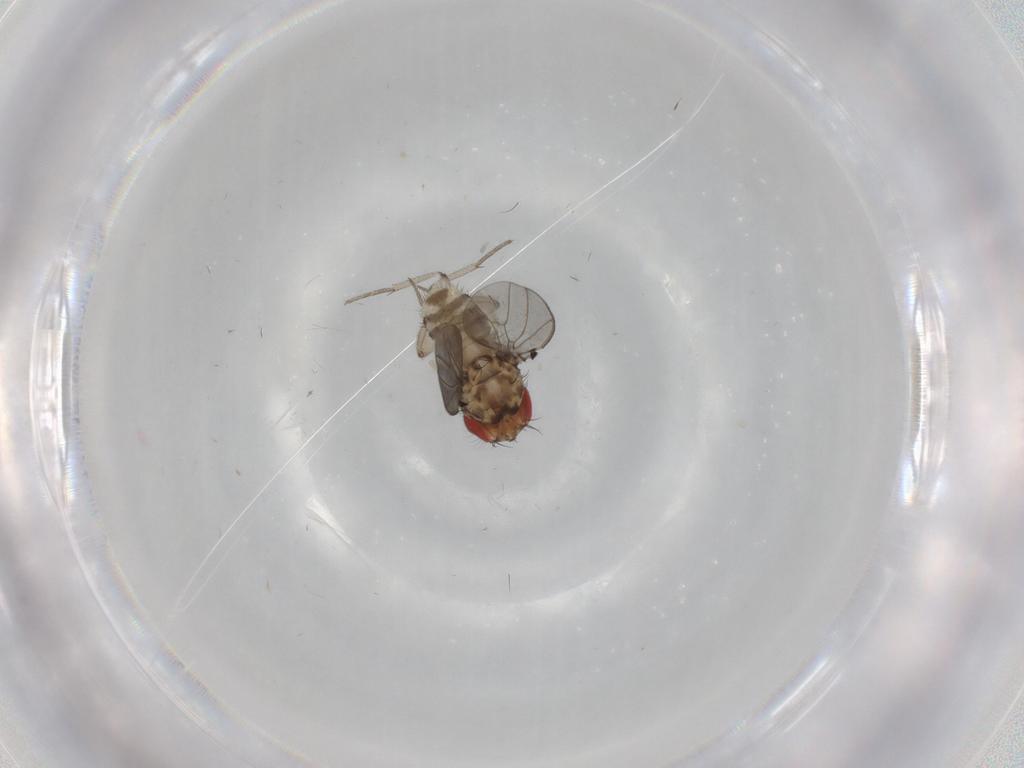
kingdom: Animalia
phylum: Arthropoda
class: Insecta
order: Diptera
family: Drosophilidae
